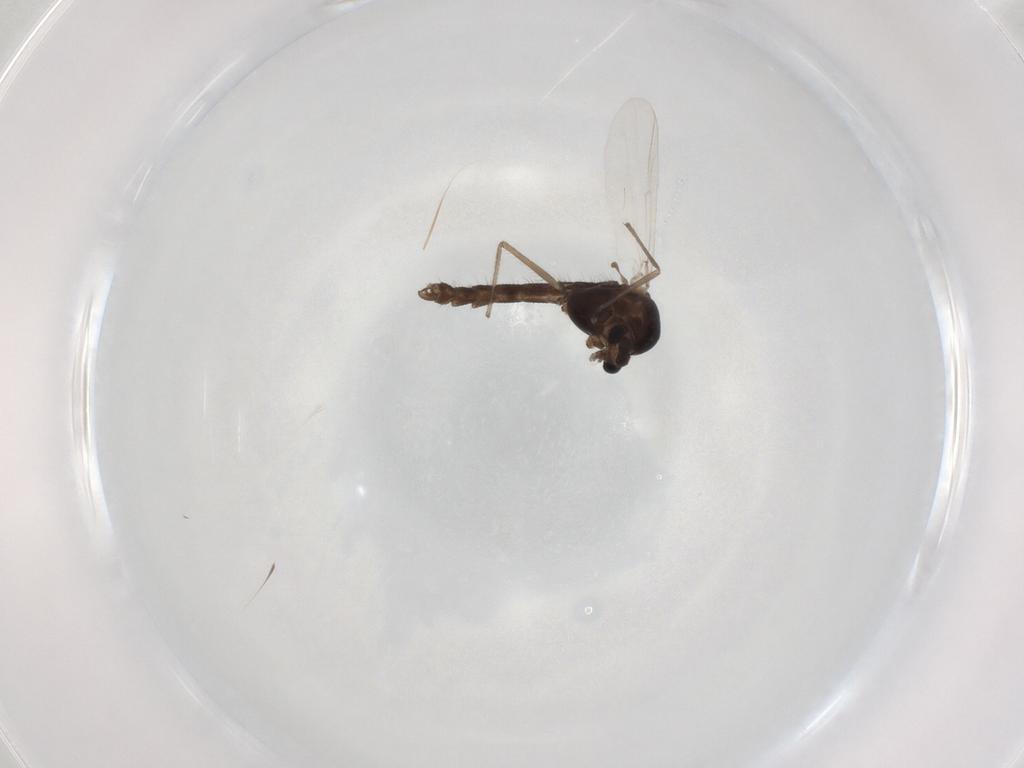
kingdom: Animalia
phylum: Arthropoda
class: Insecta
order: Diptera
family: Chironomidae
